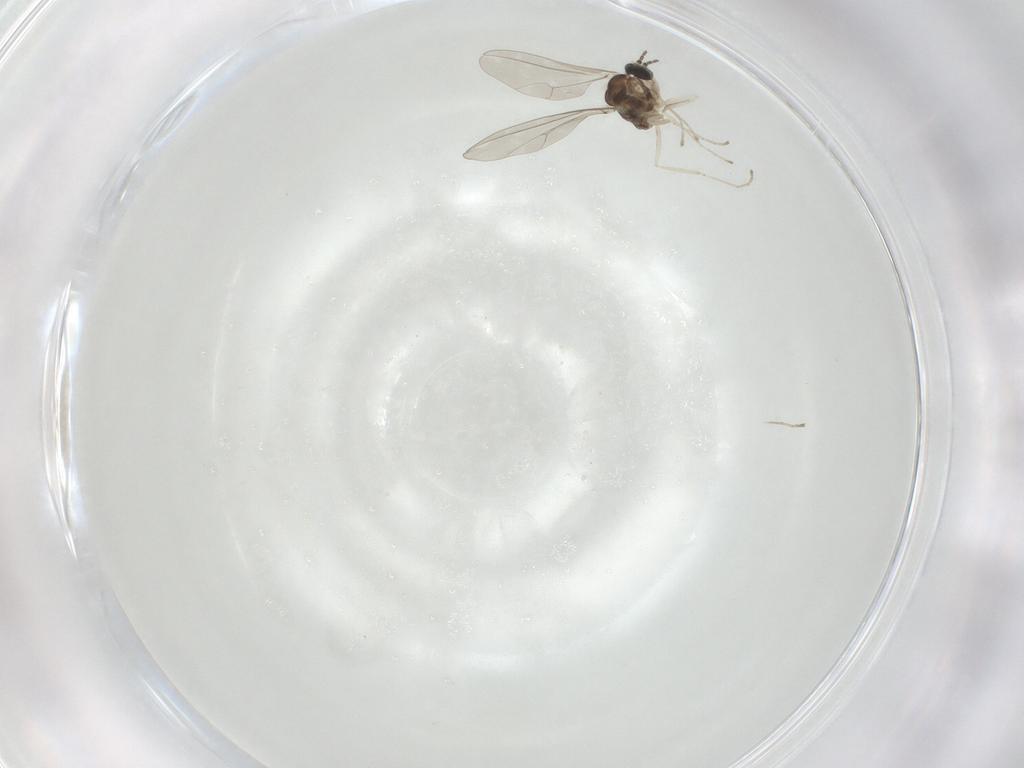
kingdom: Animalia
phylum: Arthropoda
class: Insecta
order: Diptera
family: Cecidomyiidae
